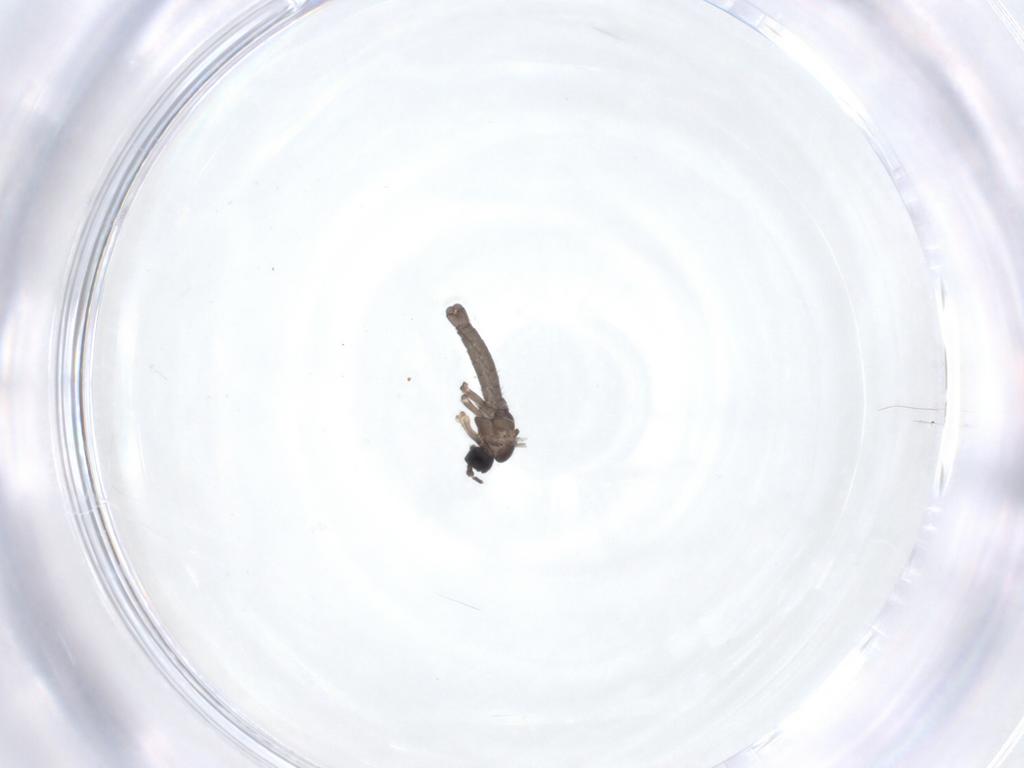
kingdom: Animalia
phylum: Arthropoda
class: Insecta
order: Diptera
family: Sciaridae
